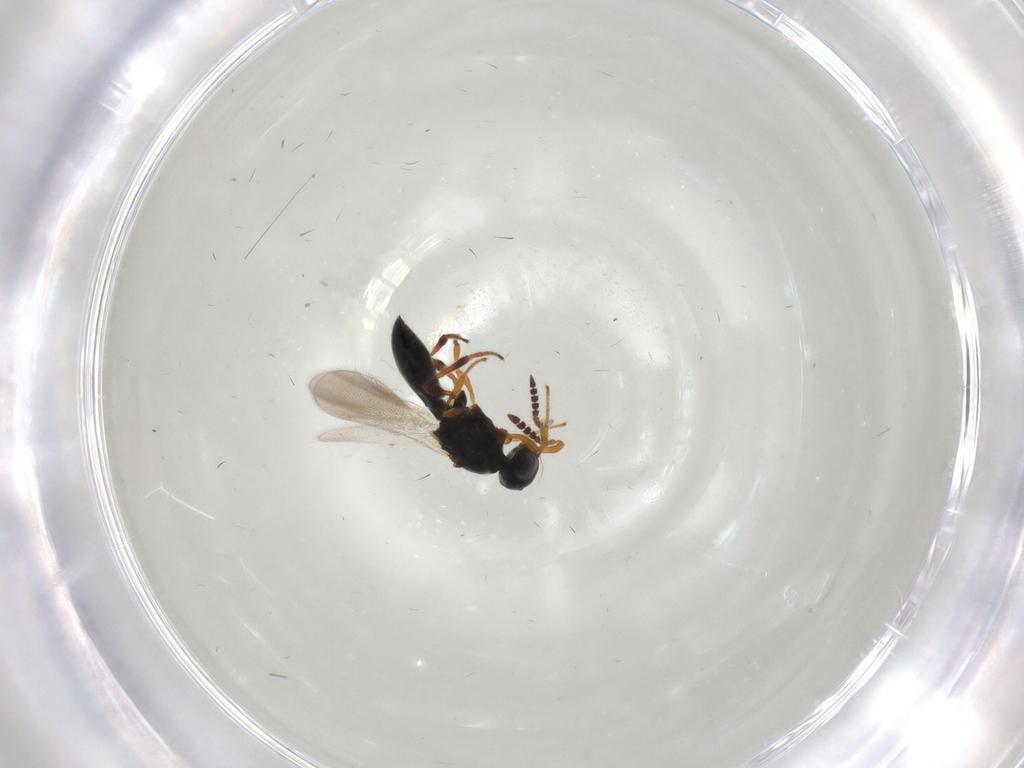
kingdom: Animalia
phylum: Arthropoda
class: Insecta
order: Hymenoptera
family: Platygastridae
